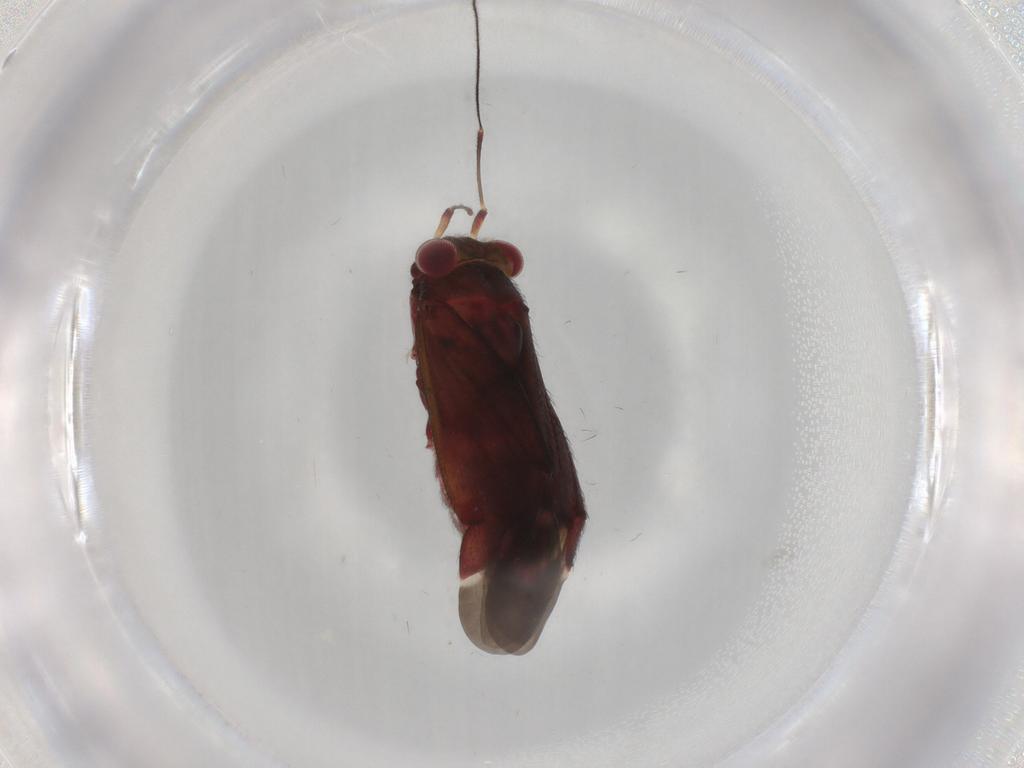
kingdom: Animalia
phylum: Arthropoda
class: Insecta
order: Hemiptera
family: Miridae
